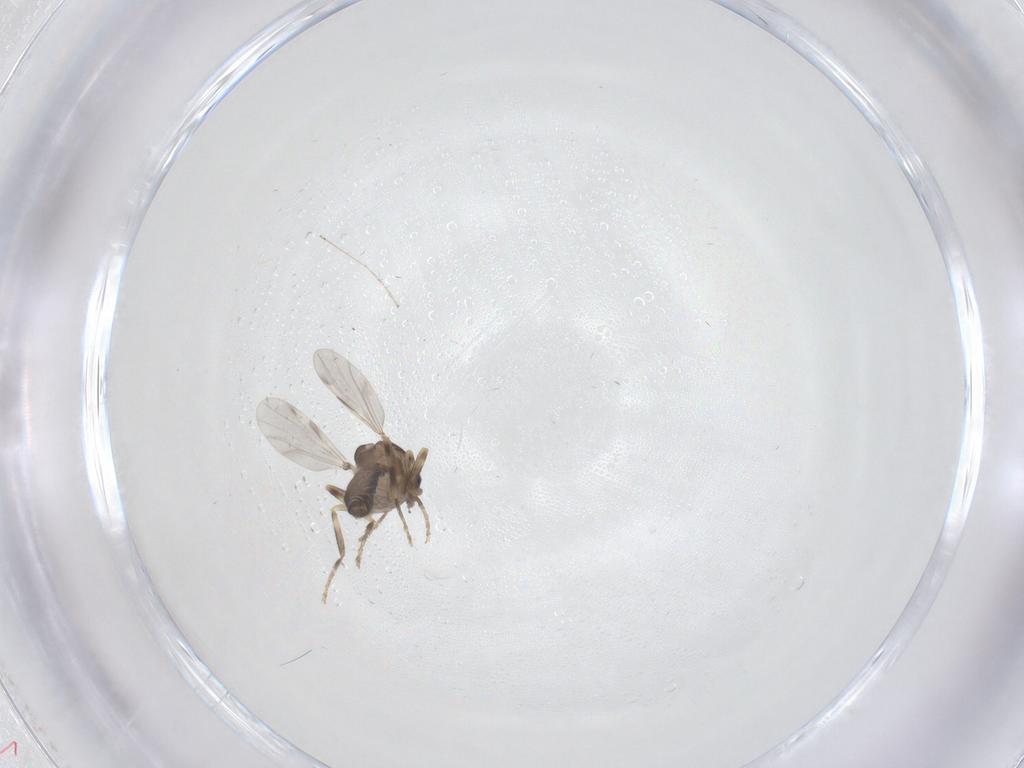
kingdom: Animalia
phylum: Arthropoda
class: Insecta
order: Diptera
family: Ceratopogonidae
